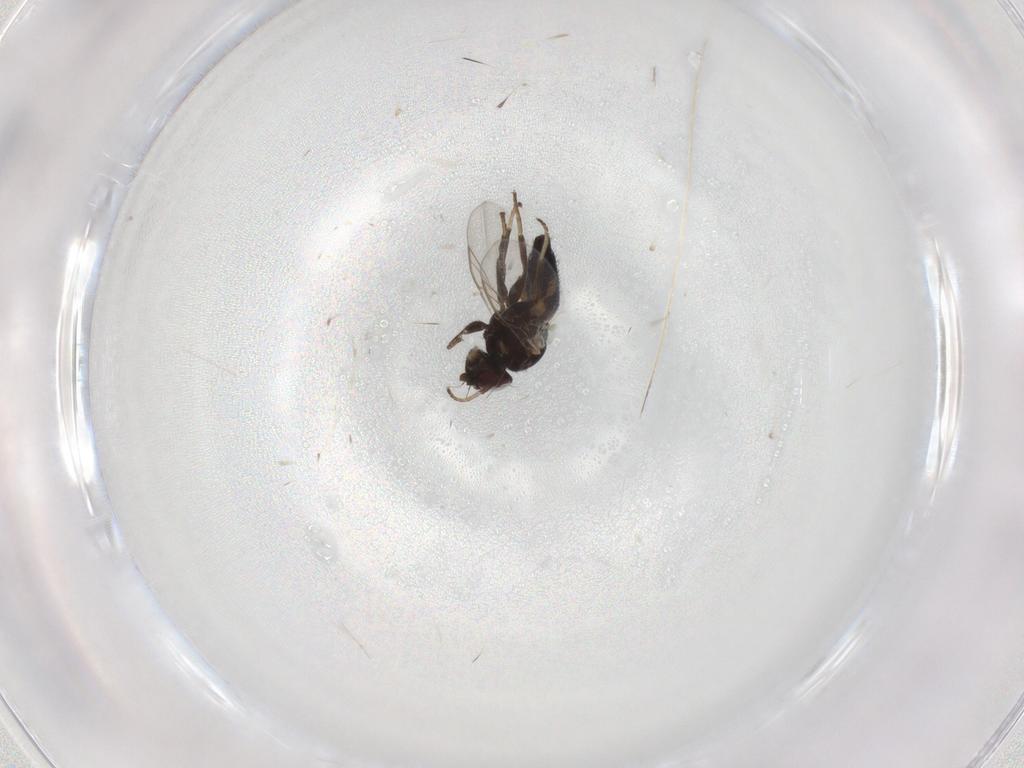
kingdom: Animalia
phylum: Arthropoda
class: Insecta
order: Diptera
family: Agromyzidae
